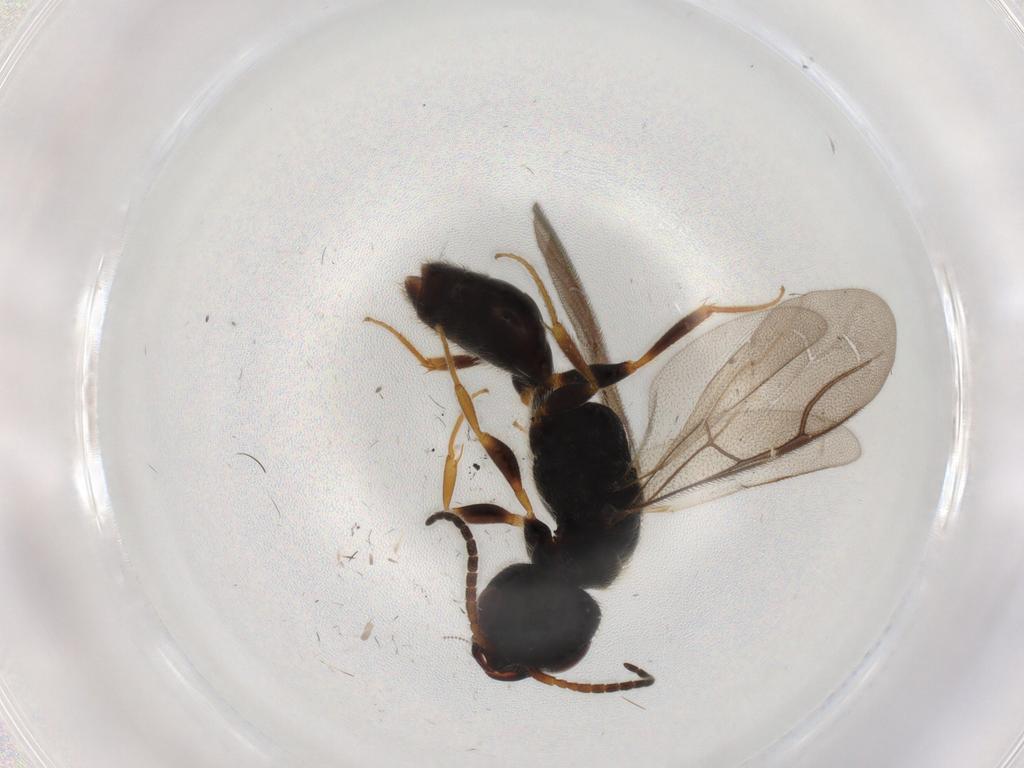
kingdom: Animalia
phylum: Arthropoda
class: Insecta
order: Hymenoptera
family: Bethylidae
